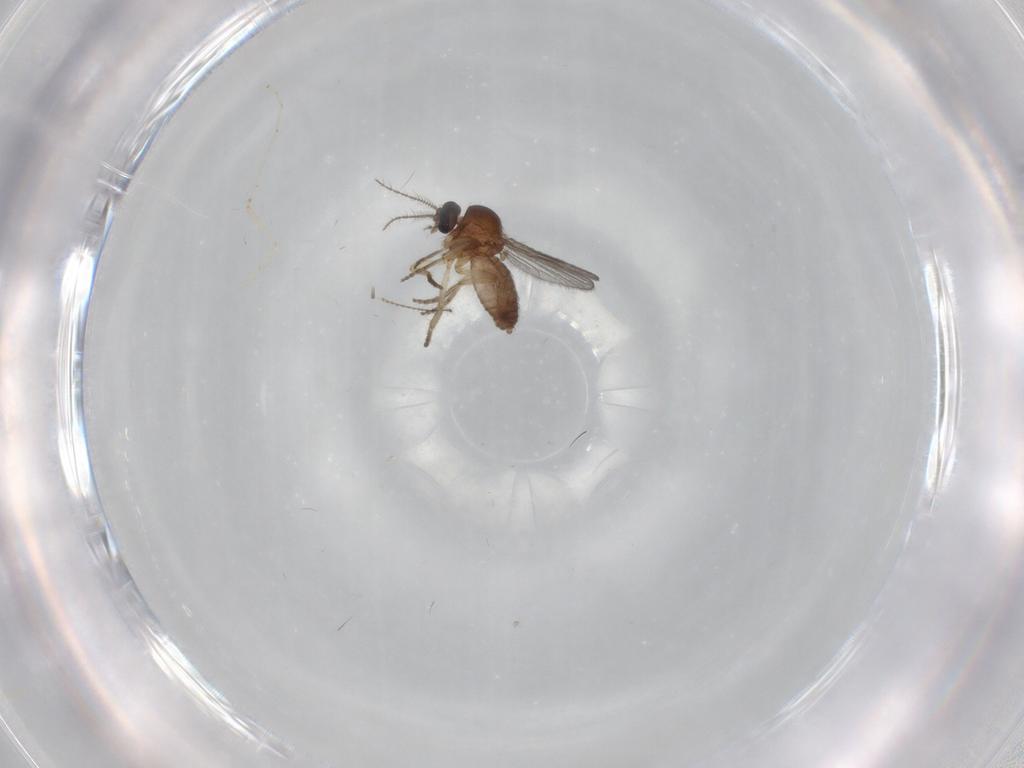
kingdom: Animalia
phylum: Arthropoda
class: Insecta
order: Diptera
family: Ceratopogonidae
